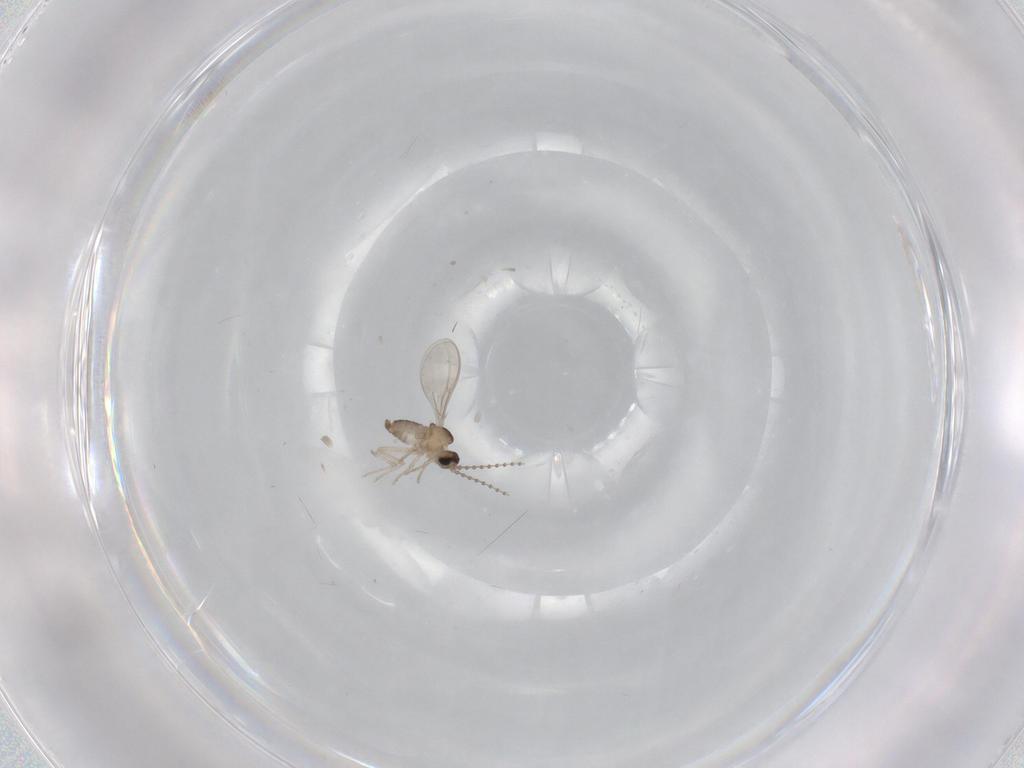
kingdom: Animalia
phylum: Arthropoda
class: Insecta
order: Diptera
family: Cecidomyiidae
